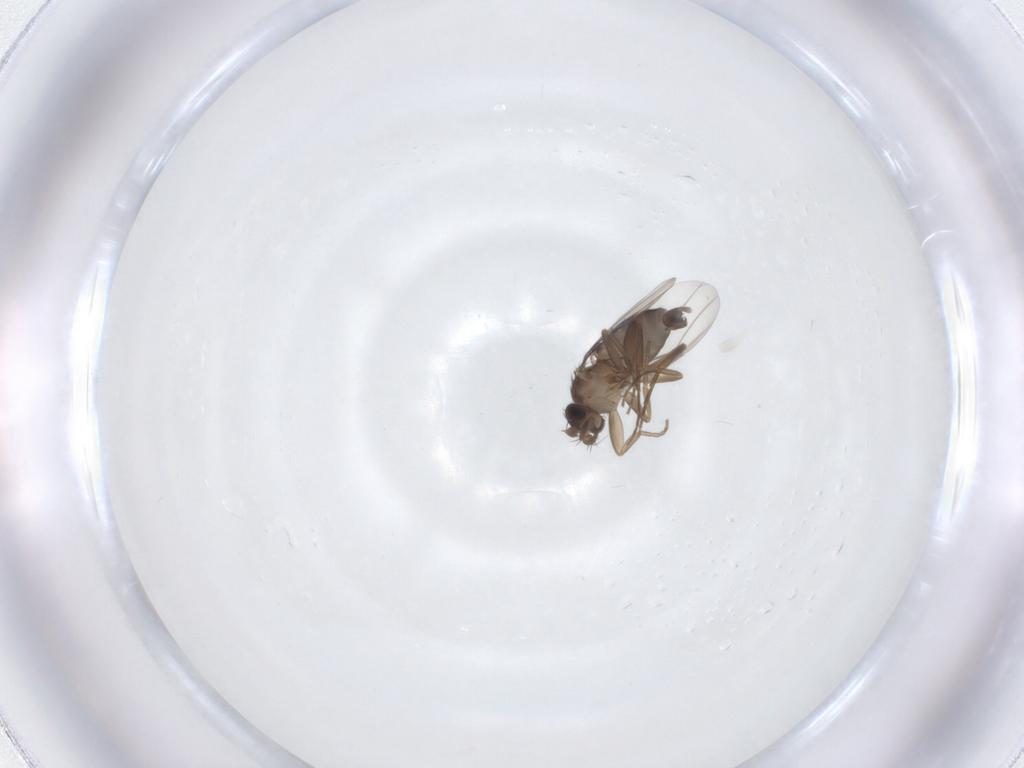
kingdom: Animalia
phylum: Arthropoda
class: Insecta
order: Diptera
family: Phoridae
